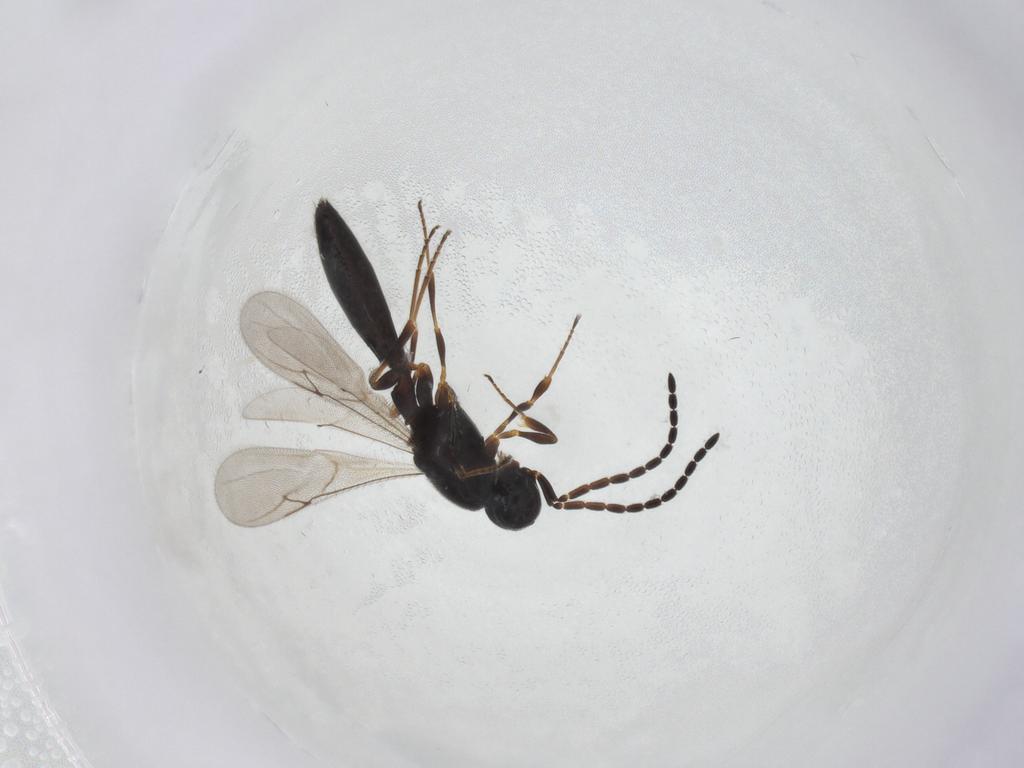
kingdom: Animalia
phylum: Arthropoda
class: Insecta
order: Hymenoptera
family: Scelionidae
